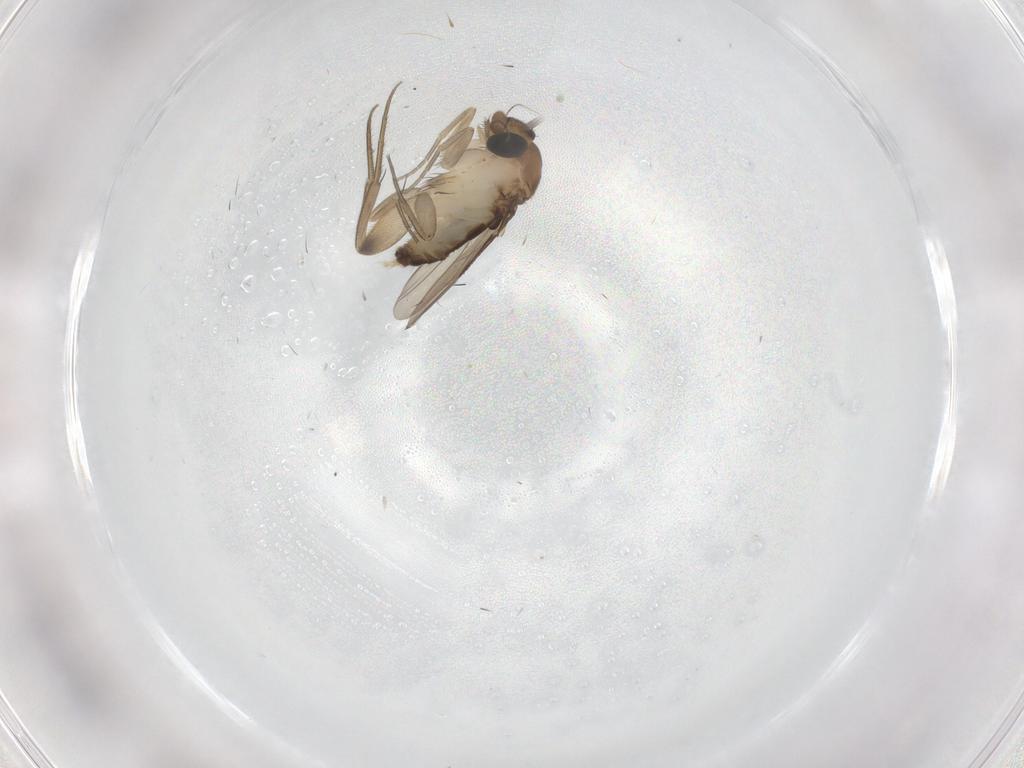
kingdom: Animalia
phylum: Arthropoda
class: Insecta
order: Diptera
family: Phoridae
